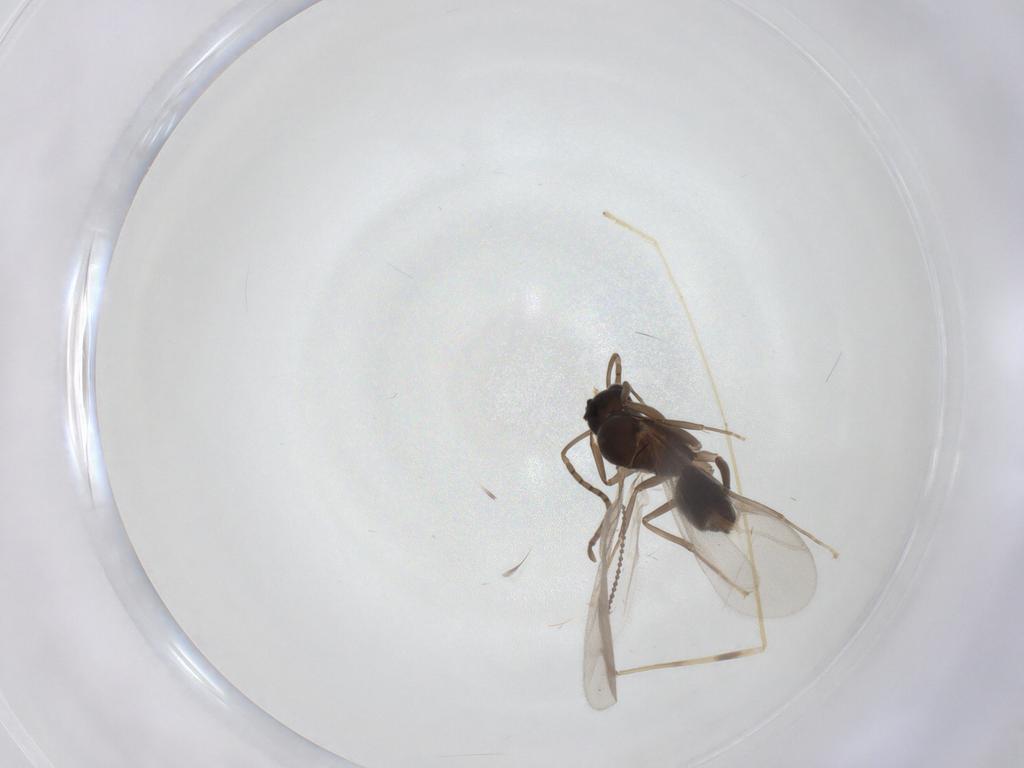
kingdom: Animalia
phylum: Arthropoda
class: Insecta
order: Diptera
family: Limoniidae
